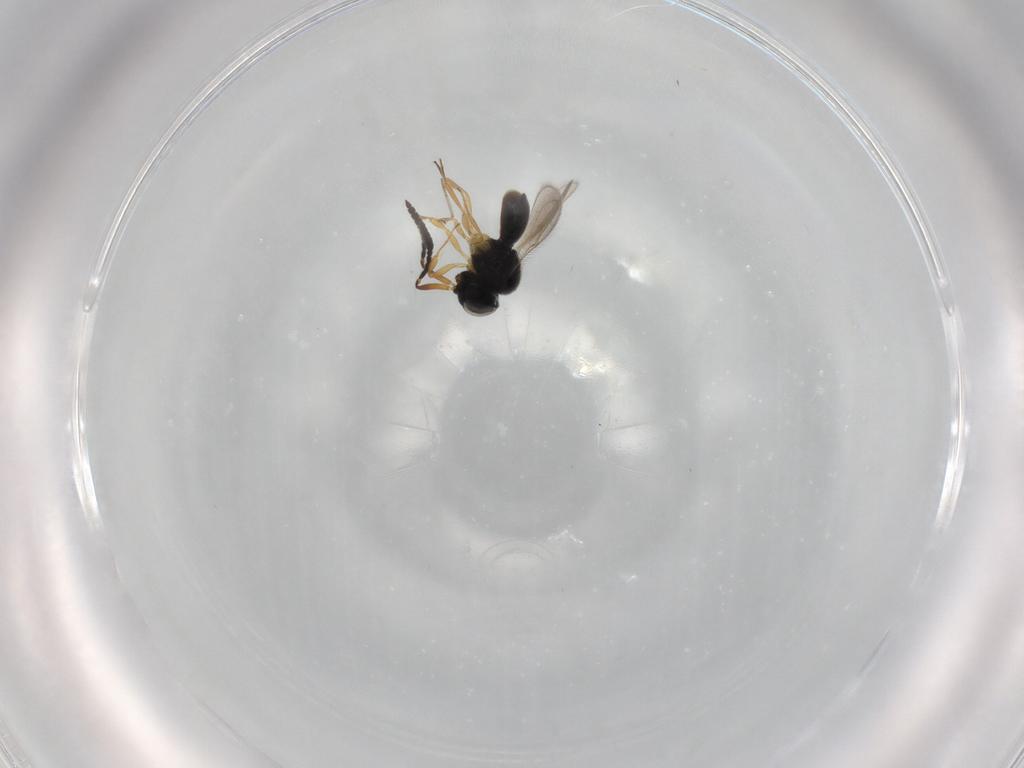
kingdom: Animalia
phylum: Arthropoda
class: Insecta
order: Hymenoptera
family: Scelionidae
